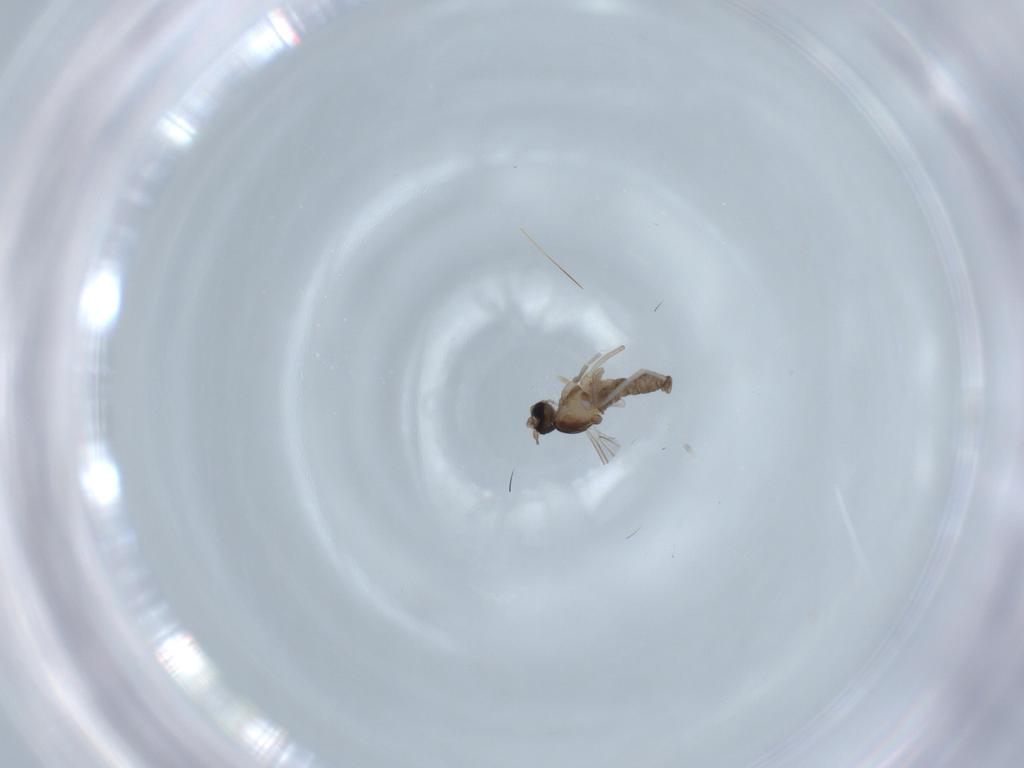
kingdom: Animalia
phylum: Arthropoda
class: Insecta
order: Diptera
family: Cecidomyiidae
